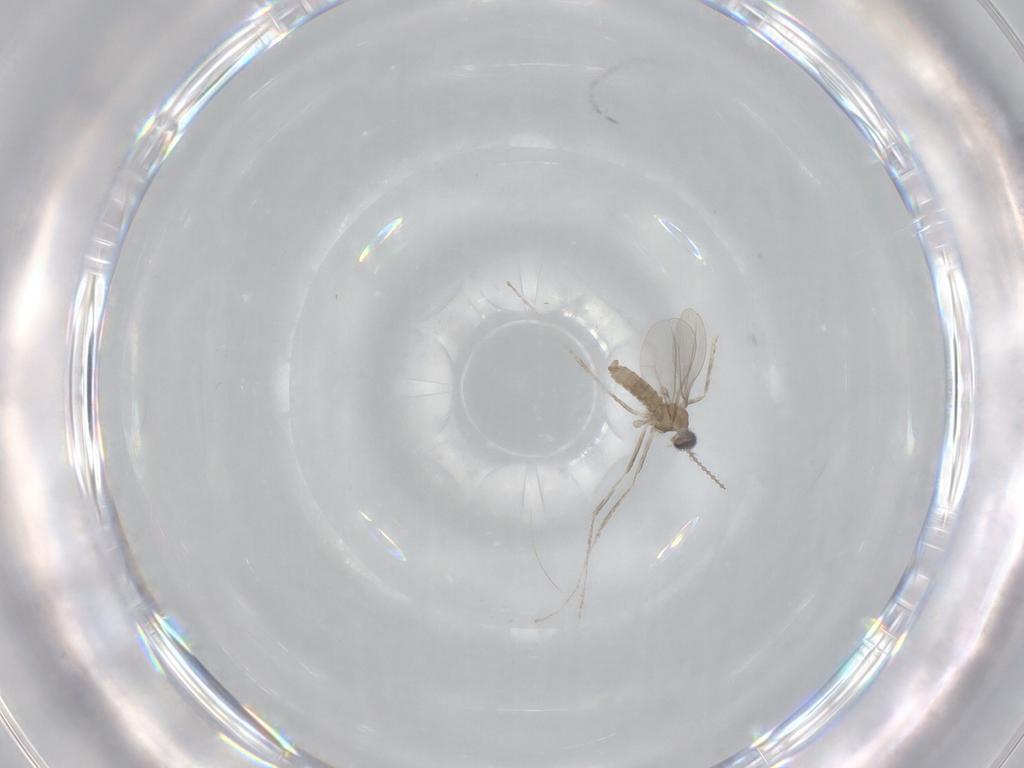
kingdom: Animalia
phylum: Arthropoda
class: Insecta
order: Diptera
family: Cecidomyiidae
